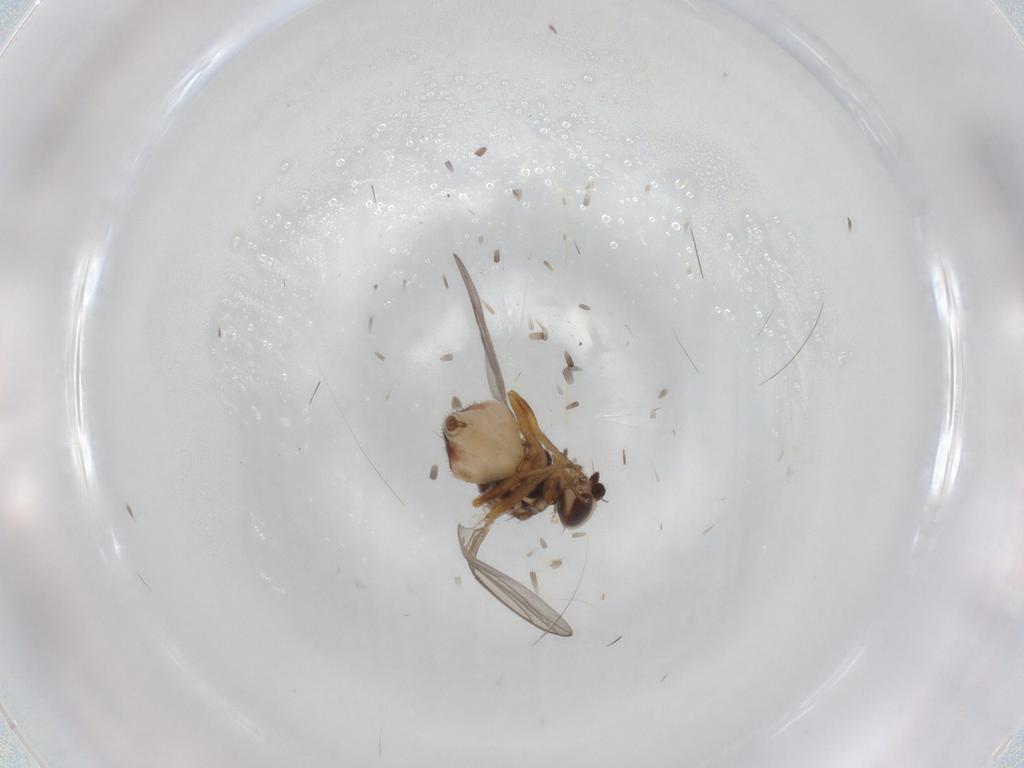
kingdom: Animalia
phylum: Arthropoda
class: Insecta
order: Diptera
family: Chloropidae
